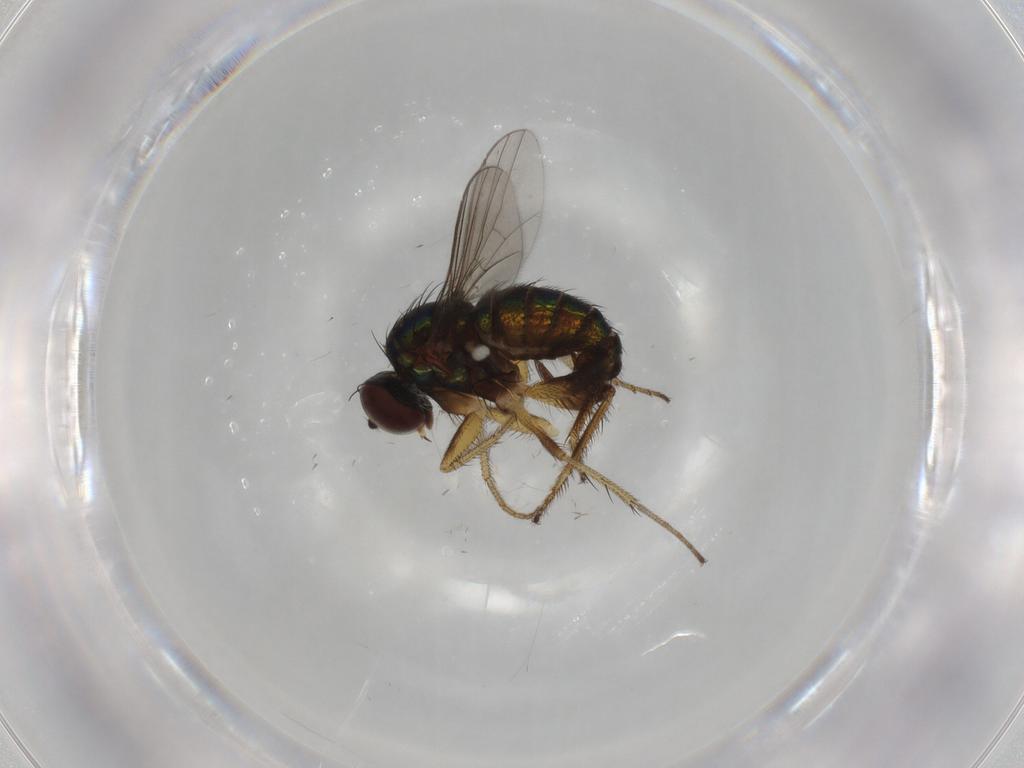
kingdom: Animalia
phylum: Arthropoda
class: Insecta
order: Diptera
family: Dolichopodidae
